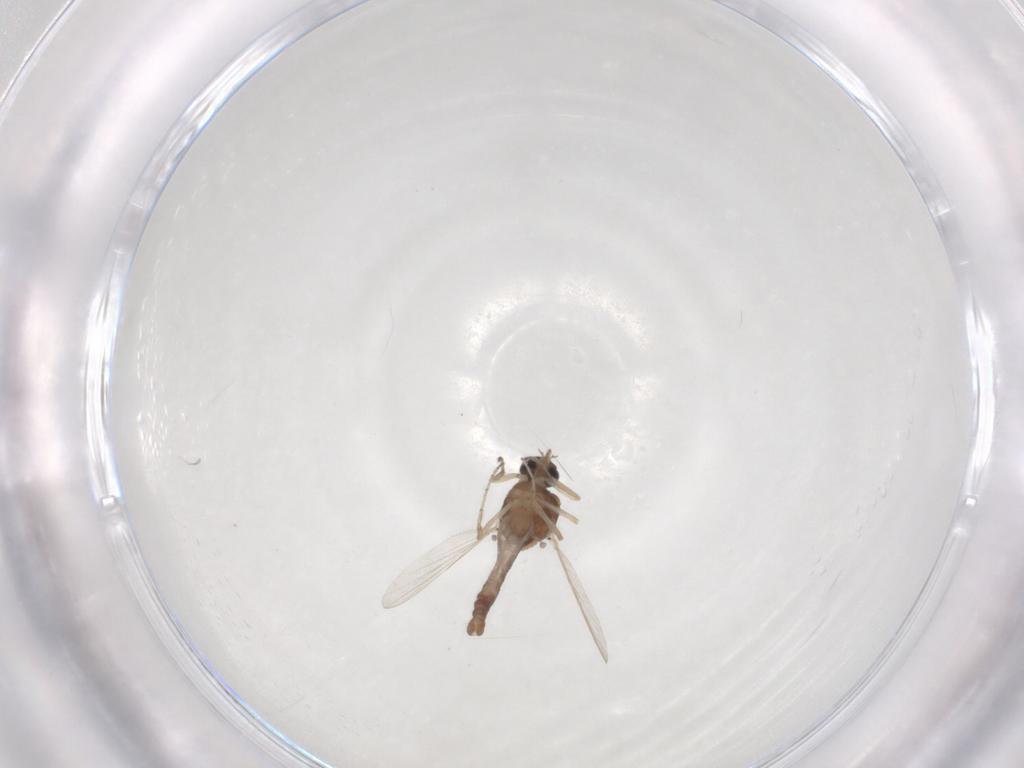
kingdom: Animalia
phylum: Arthropoda
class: Insecta
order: Diptera
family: Ceratopogonidae
